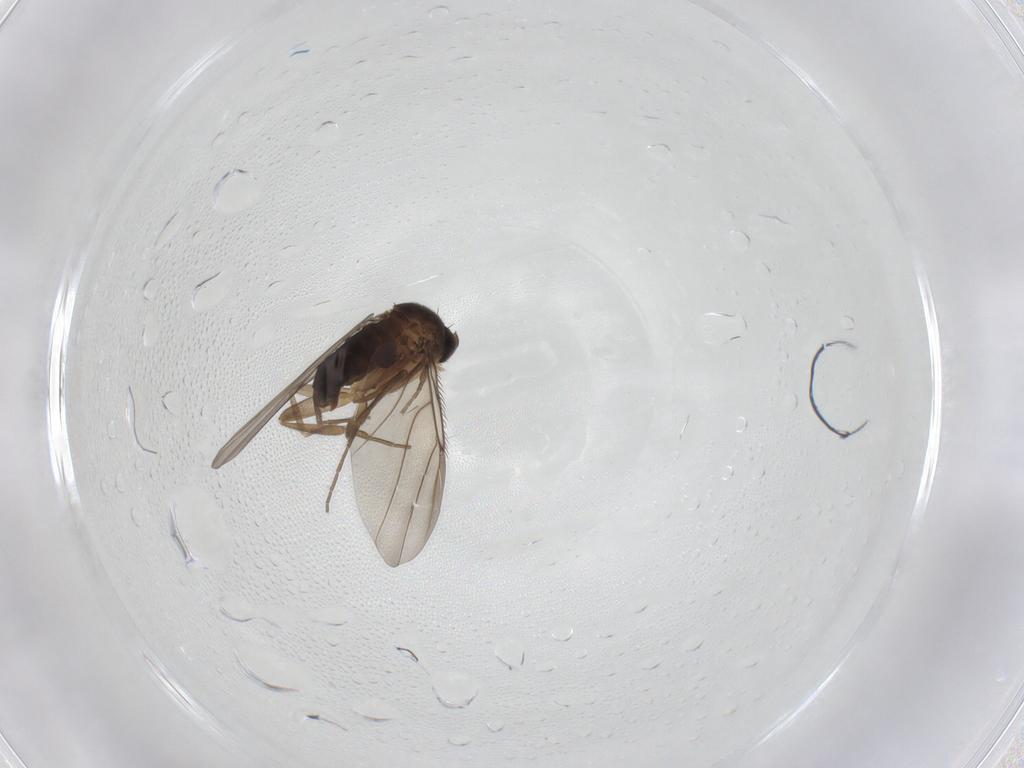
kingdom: Animalia
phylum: Arthropoda
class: Insecta
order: Diptera
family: Phoridae
